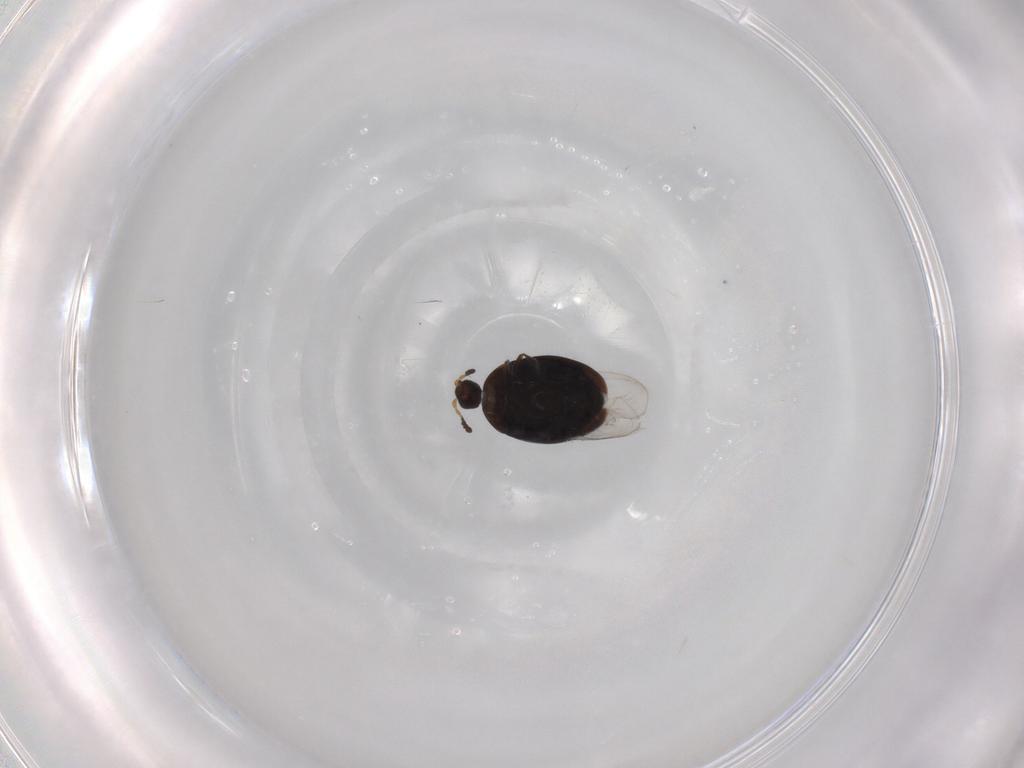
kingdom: Animalia
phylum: Arthropoda
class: Insecta
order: Coleoptera
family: Corylophidae
